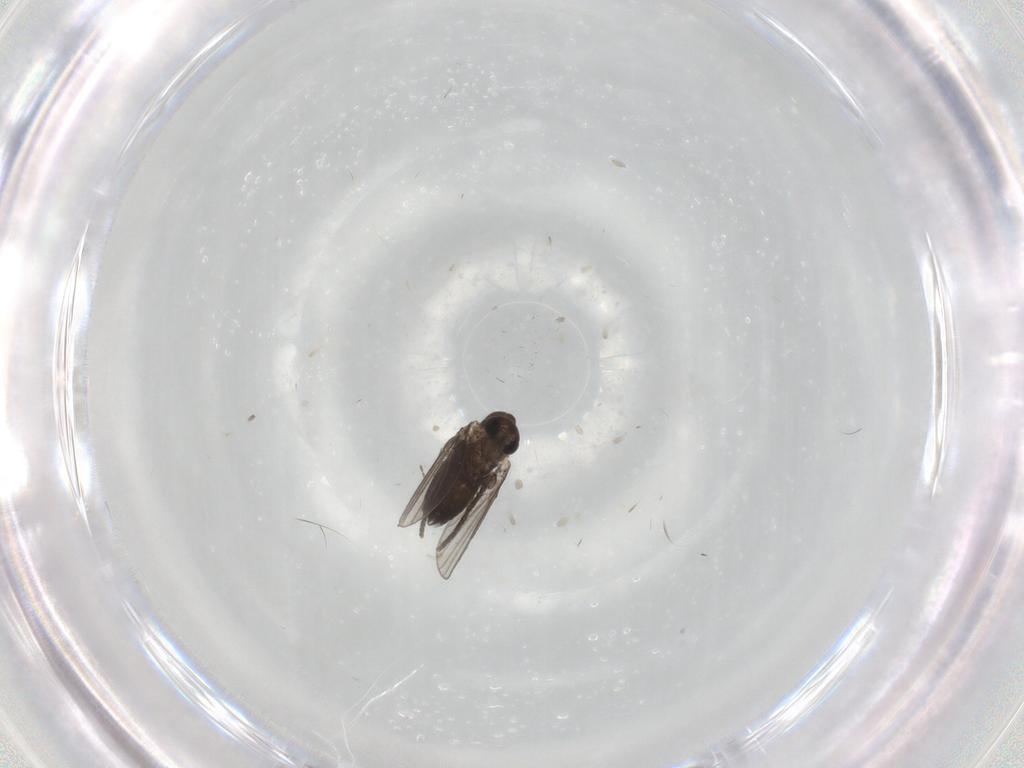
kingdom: Animalia
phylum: Arthropoda
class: Insecta
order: Diptera
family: Cecidomyiidae
